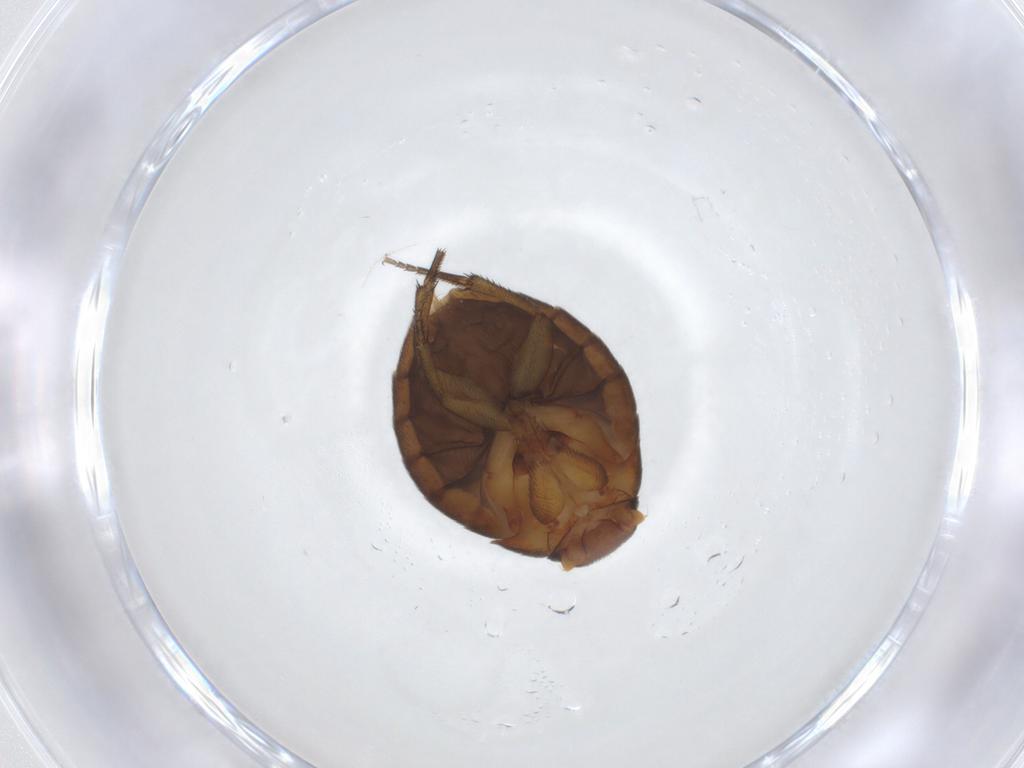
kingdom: Animalia
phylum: Arthropoda
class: Insecta
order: Diptera
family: Phoridae
